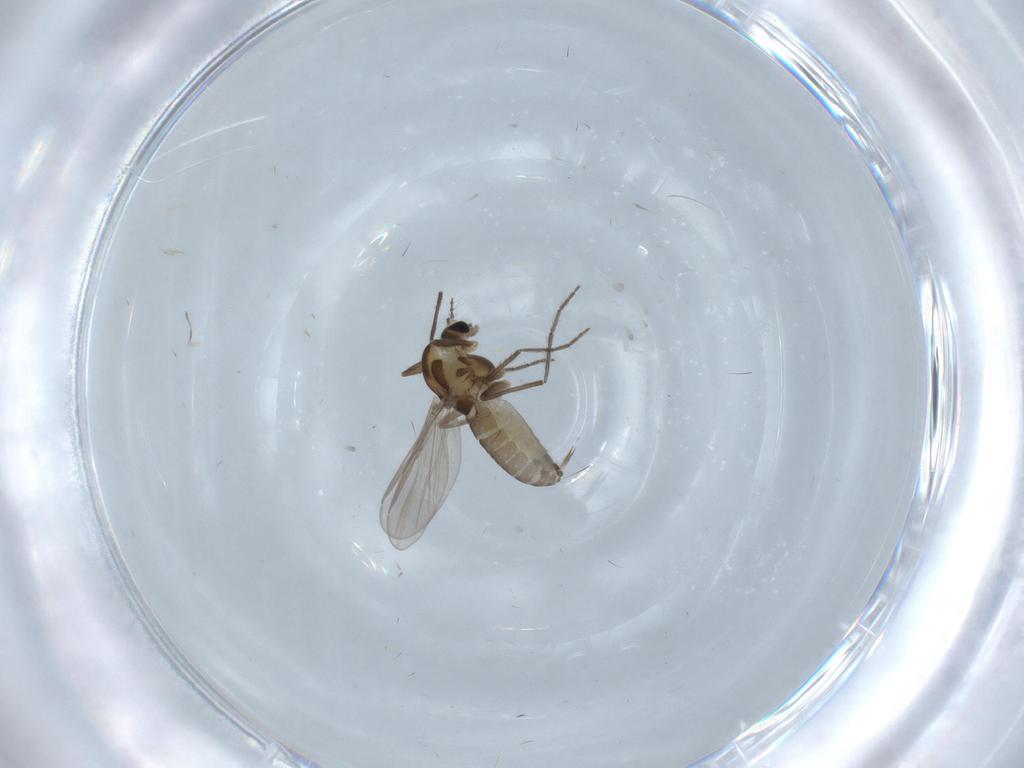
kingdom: Animalia
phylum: Arthropoda
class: Insecta
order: Diptera
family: Chironomidae
